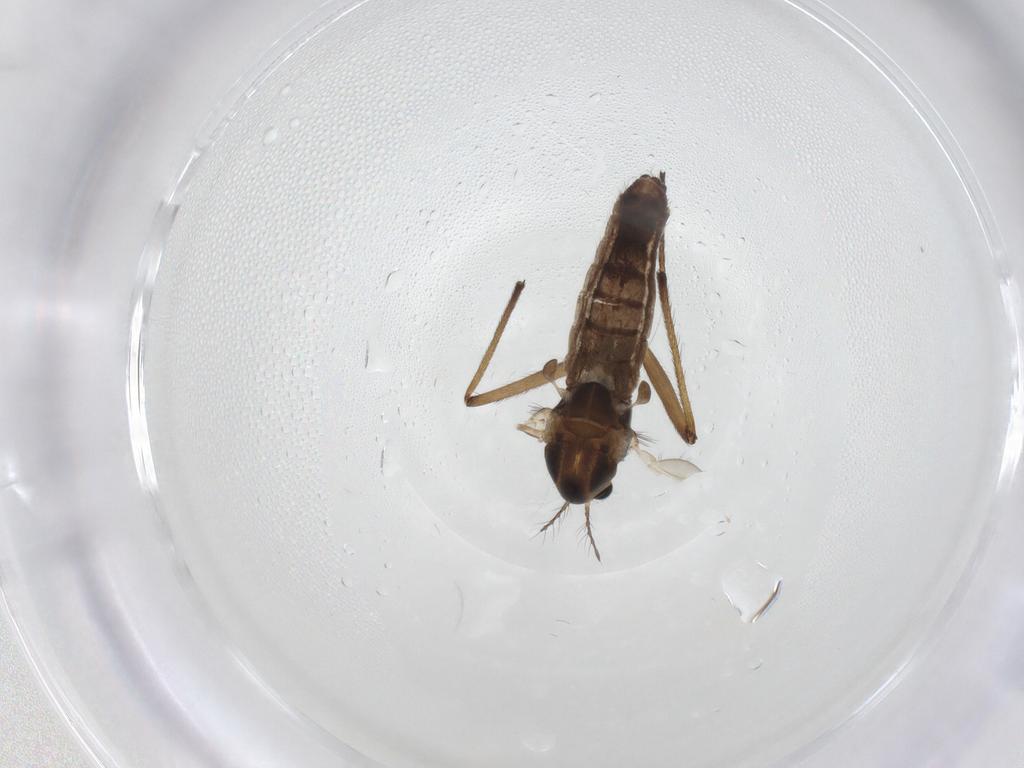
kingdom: Animalia
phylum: Arthropoda
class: Insecta
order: Diptera
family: Chironomidae
